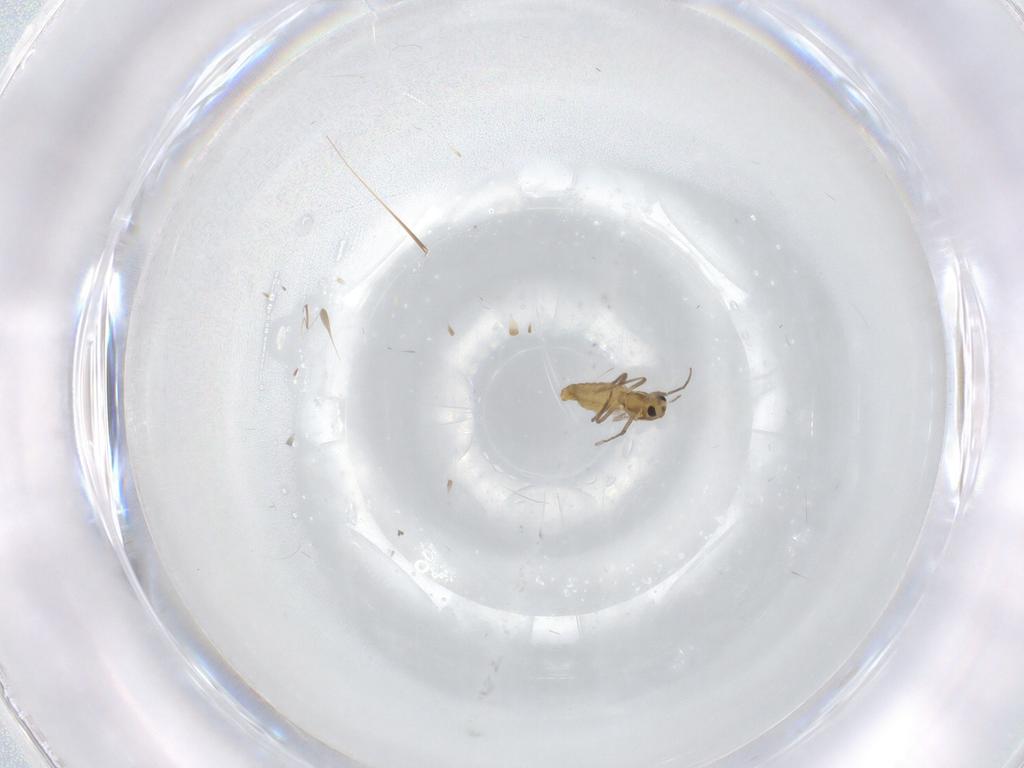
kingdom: Animalia
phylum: Arthropoda
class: Insecta
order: Diptera
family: Chironomidae
